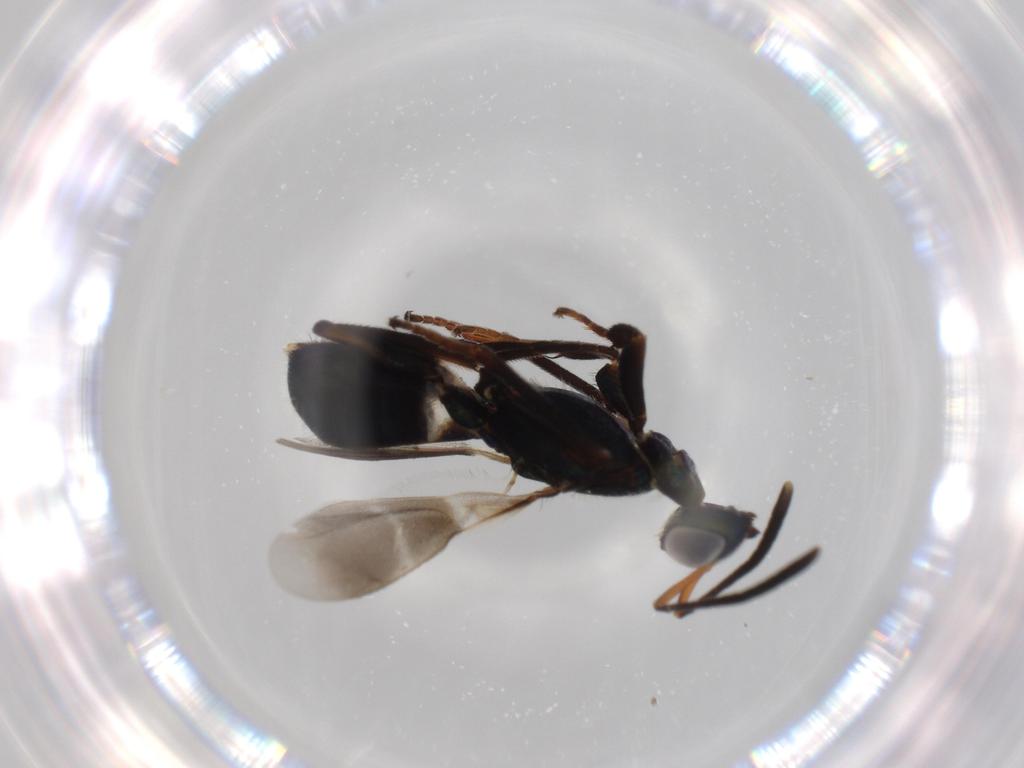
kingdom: Animalia
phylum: Arthropoda
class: Insecta
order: Hymenoptera
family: Eupelmidae
